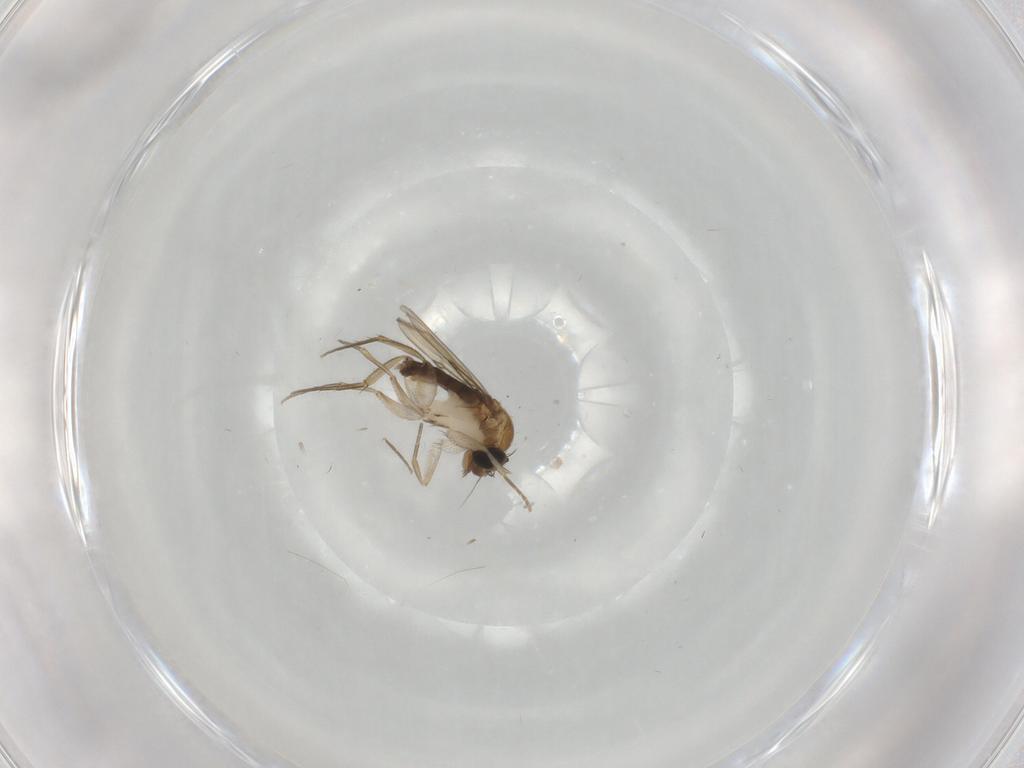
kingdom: Animalia
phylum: Arthropoda
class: Insecta
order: Diptera
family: Phoridae
